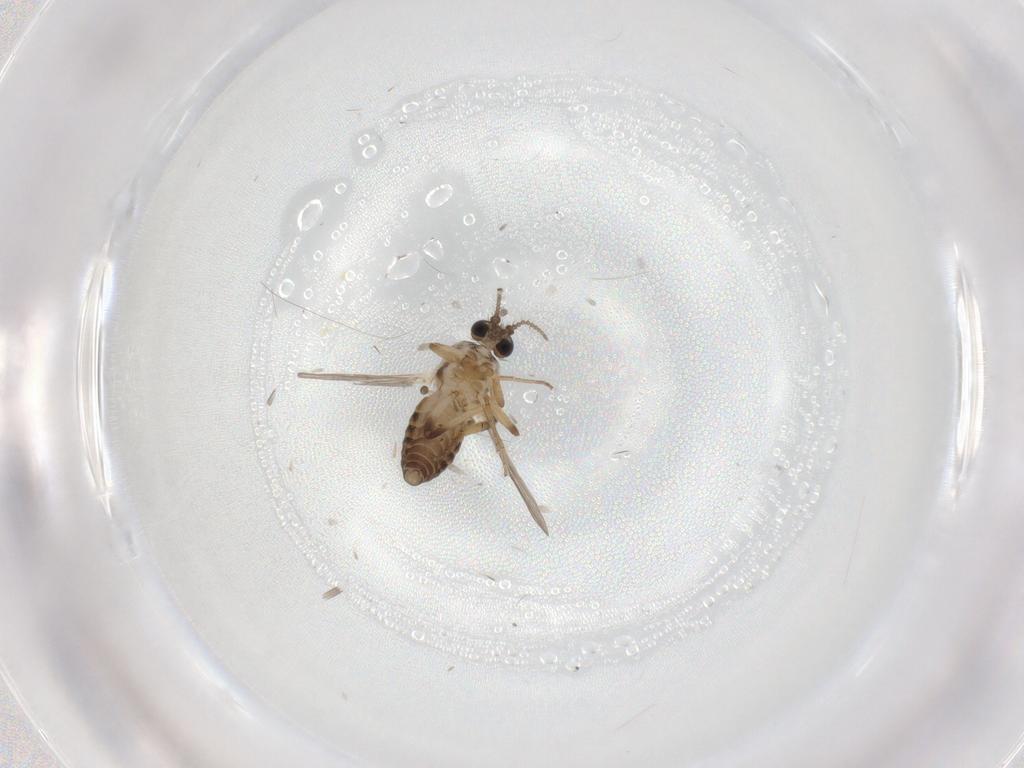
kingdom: Animalia
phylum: Arthropoda
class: Insecta
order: Diptera
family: Ceratopogonidae
